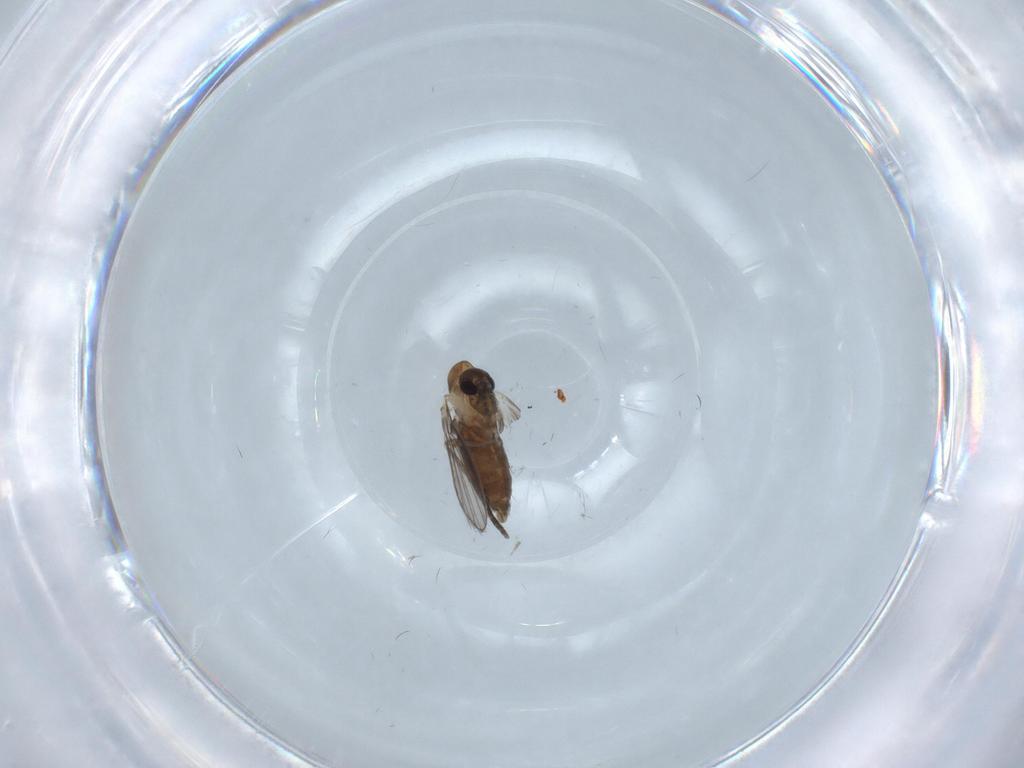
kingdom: Animalia
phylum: Arthropoda
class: Insecta
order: Diptera
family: Psychodidae
